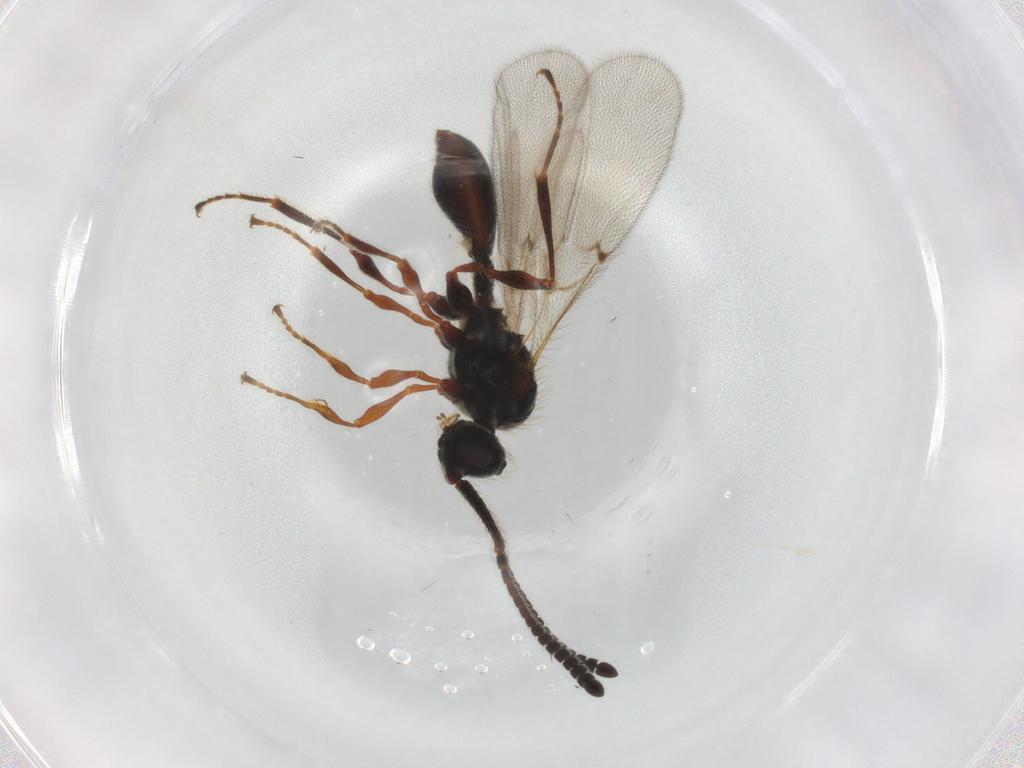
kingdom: Animalia
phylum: Arthropoda
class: Insecta
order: Hymenoptera
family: Diapriidae
